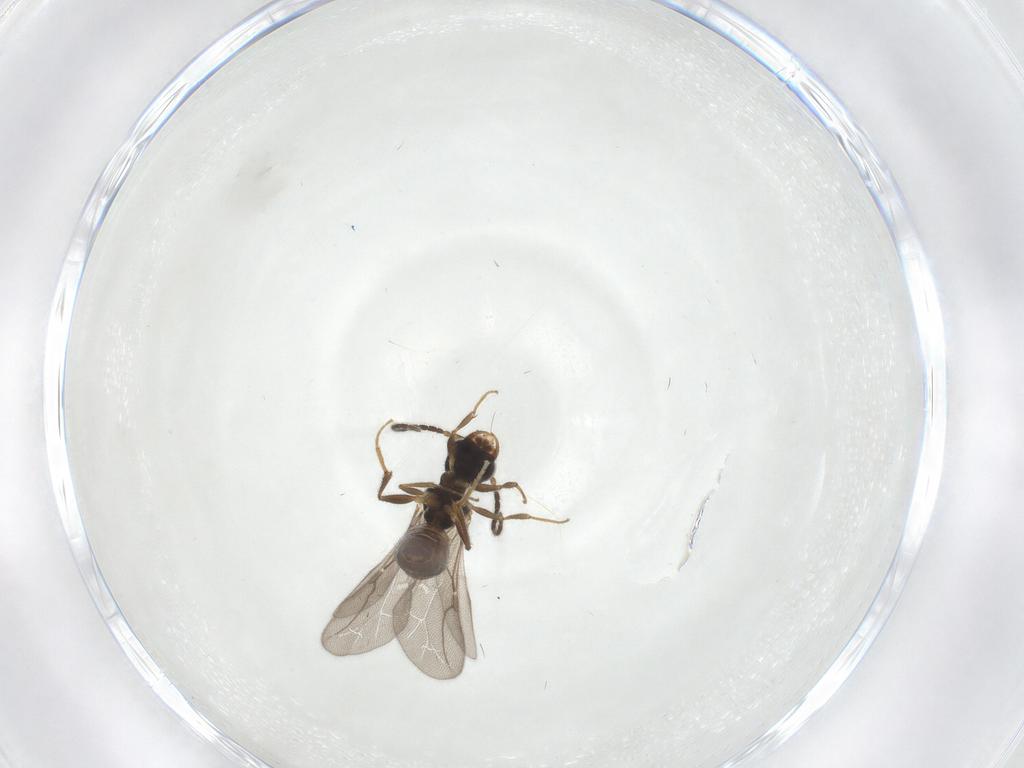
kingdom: Animalia
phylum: Arthropoda
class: Insecta
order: Hymenoptera
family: Bethylidae
